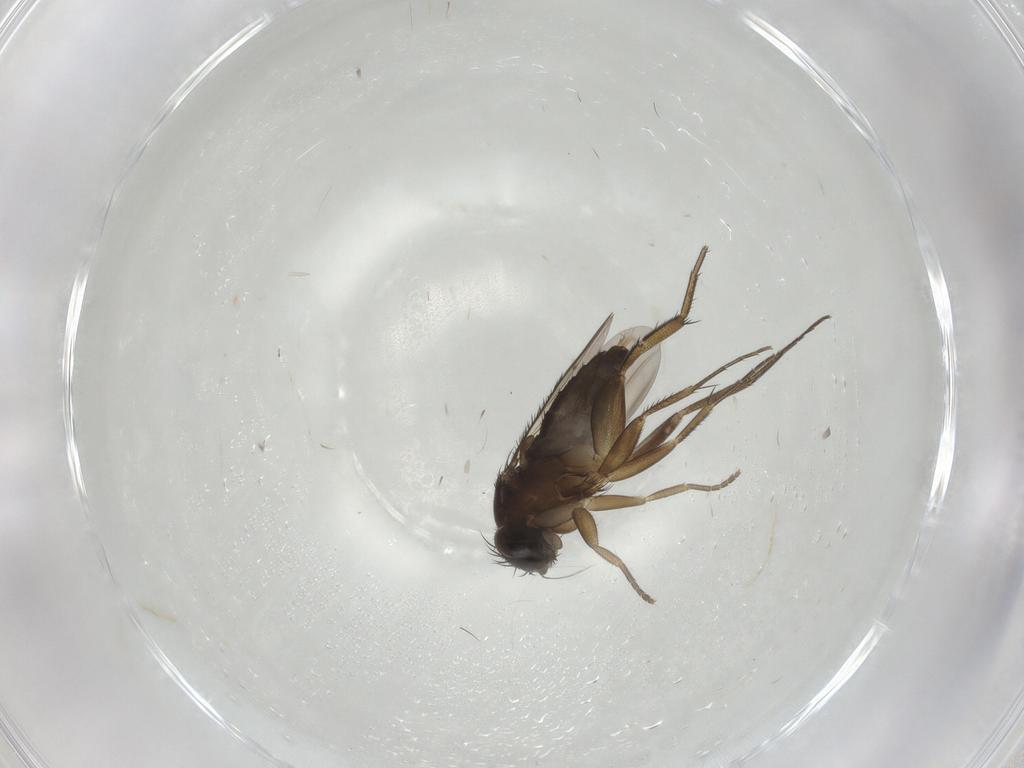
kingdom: Animalia
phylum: Arthropoda
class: Insecta
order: Diptera
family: Phoridae
